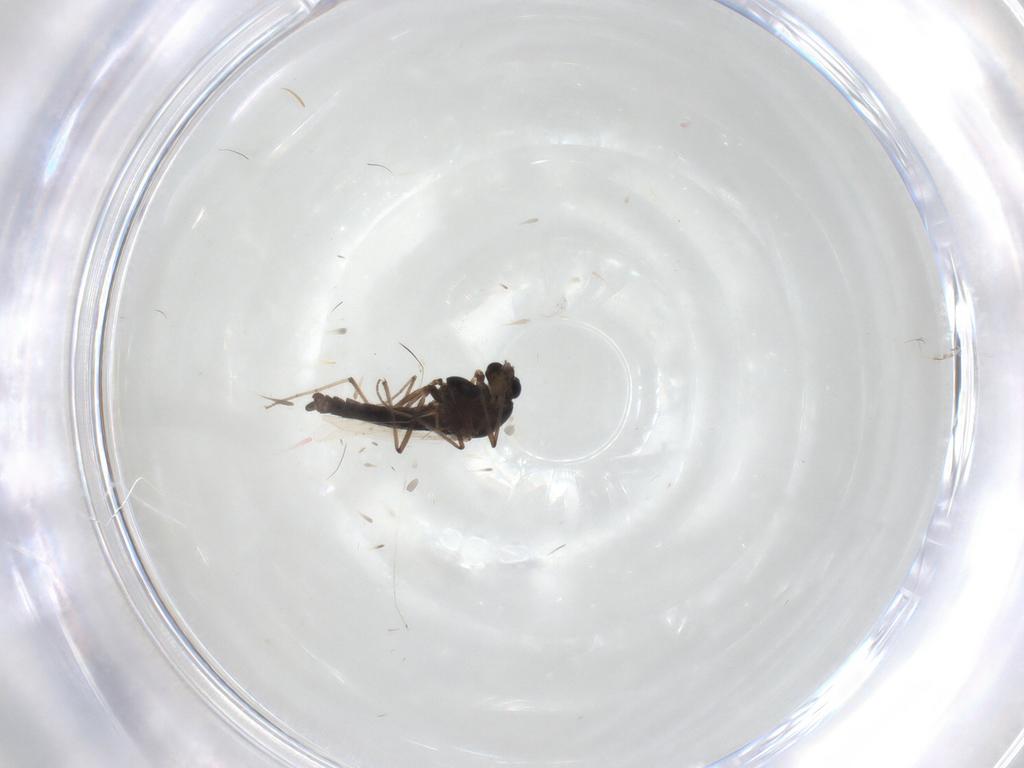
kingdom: Animalia
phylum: Arthropoda
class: Insecta
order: Diptera
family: Chironomidae
